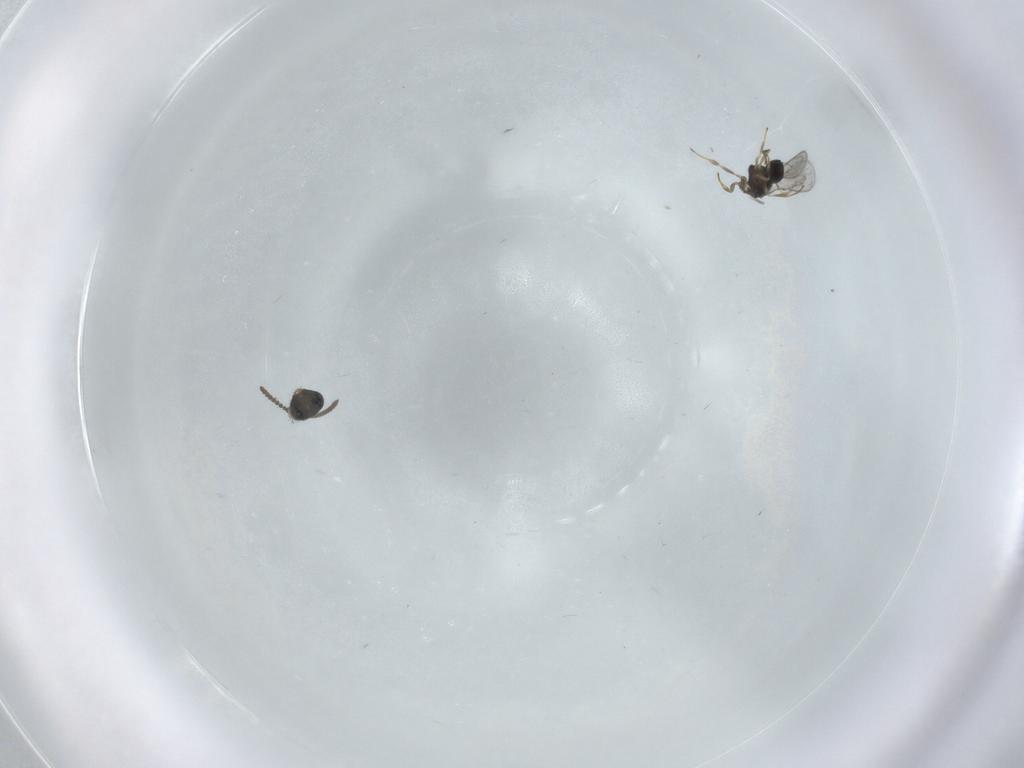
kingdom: Animalia
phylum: Arthropoda
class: Insecta
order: Hymenoptera
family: Scelionidae
